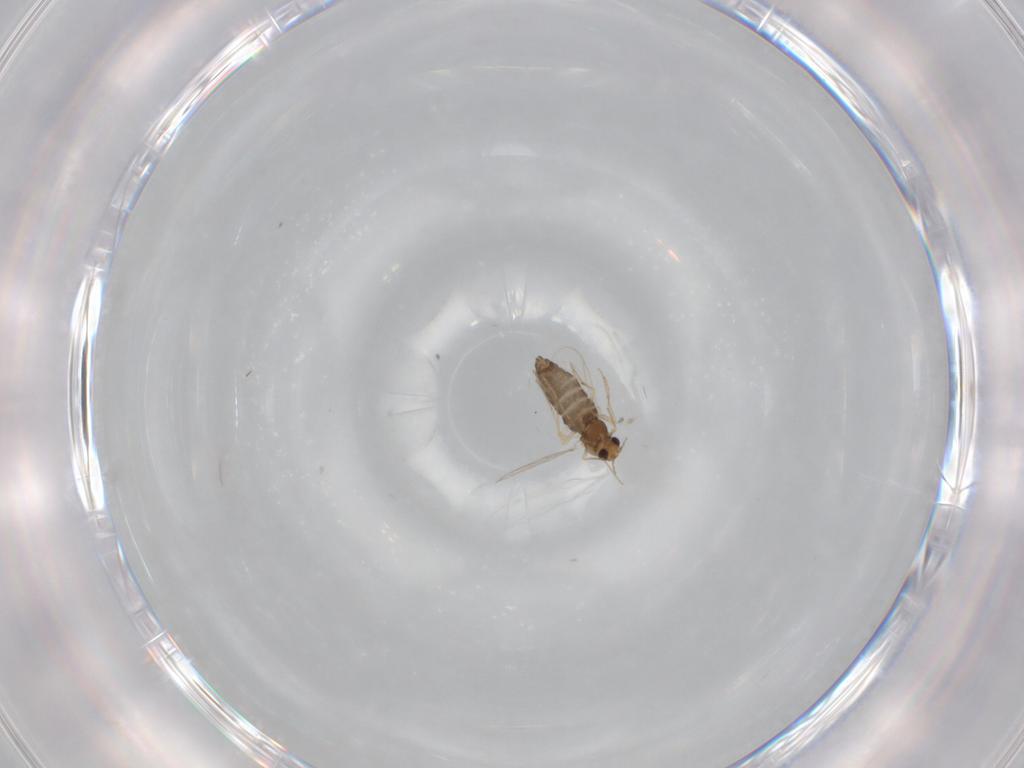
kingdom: Animalia
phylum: Arthropoda
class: Insecta
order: Diptera
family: Chironomidae
